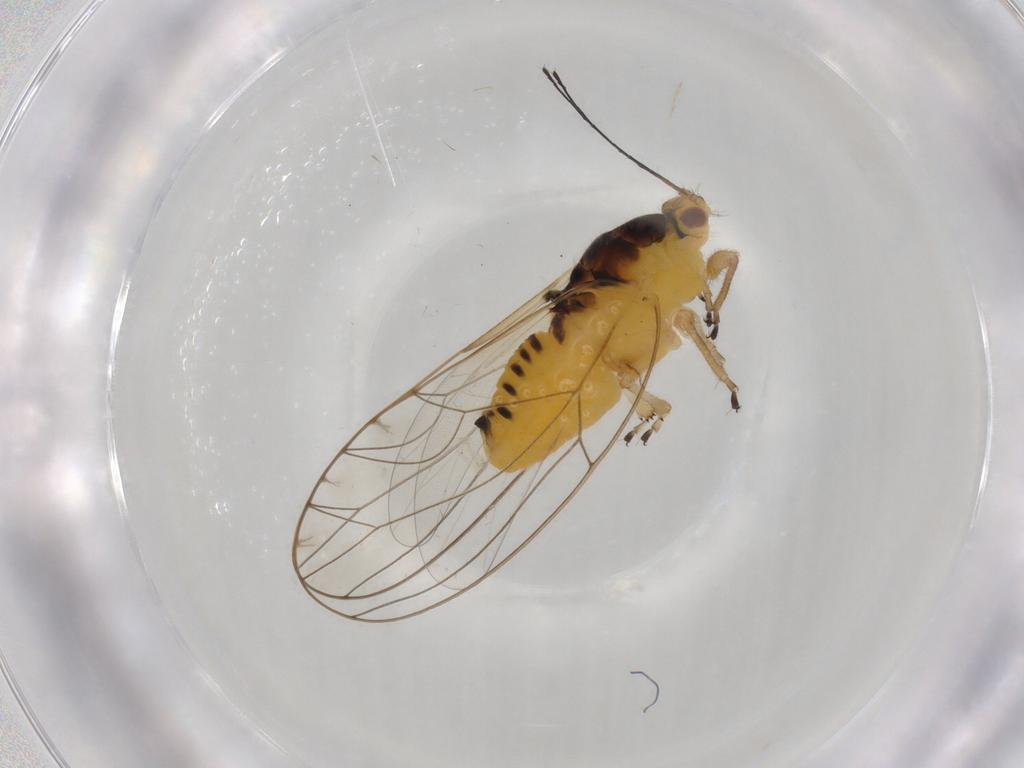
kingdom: Animalia
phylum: Arthropoda
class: Insecta
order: Hemiptera
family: Triozidae
